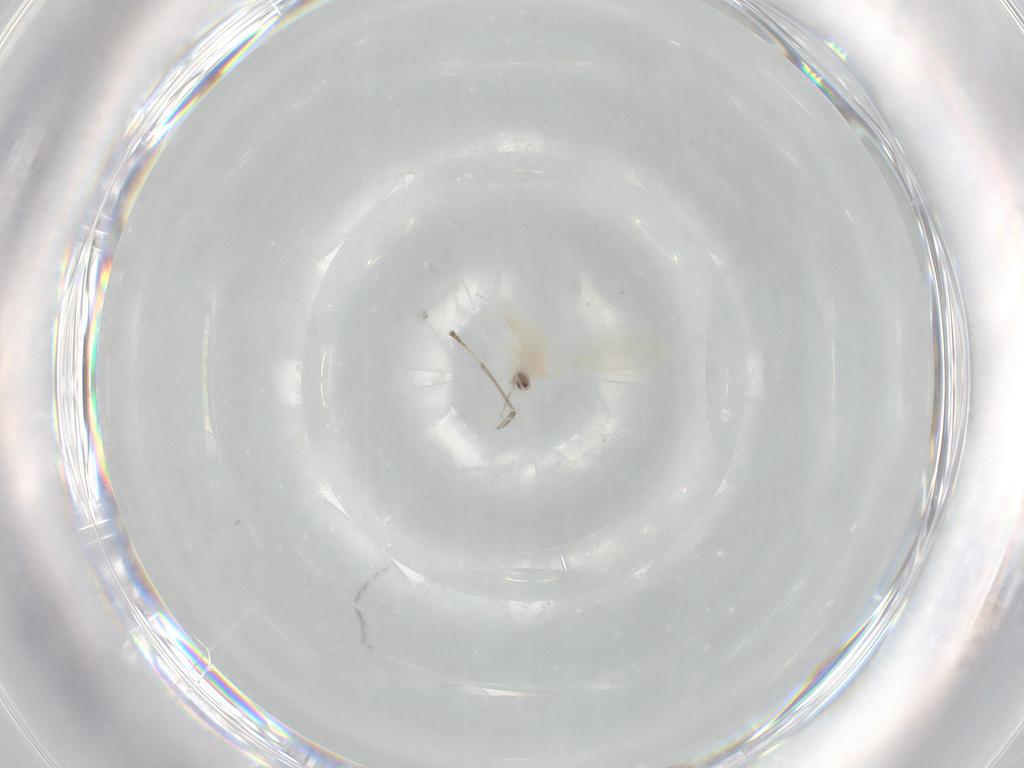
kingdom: Animalia
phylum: Arthropoda
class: Insecta
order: Diptera
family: Cecidomyiidae
